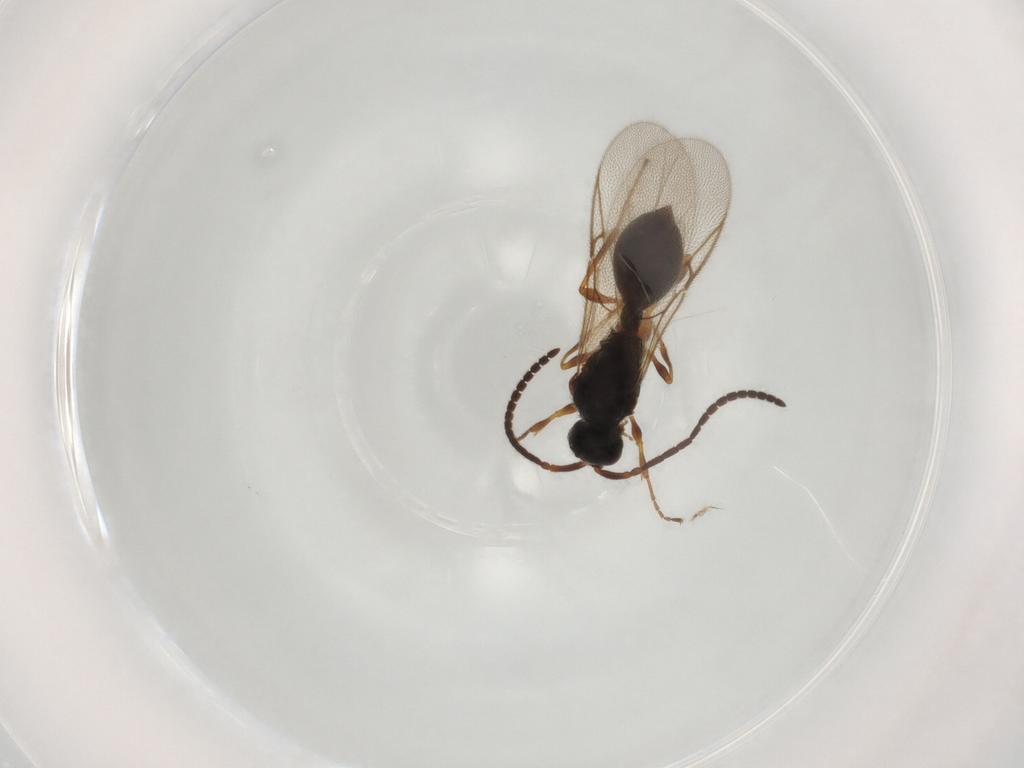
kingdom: Animalia
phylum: Arthropoda
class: Insecta
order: Hymenoptera
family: Diapriidae
